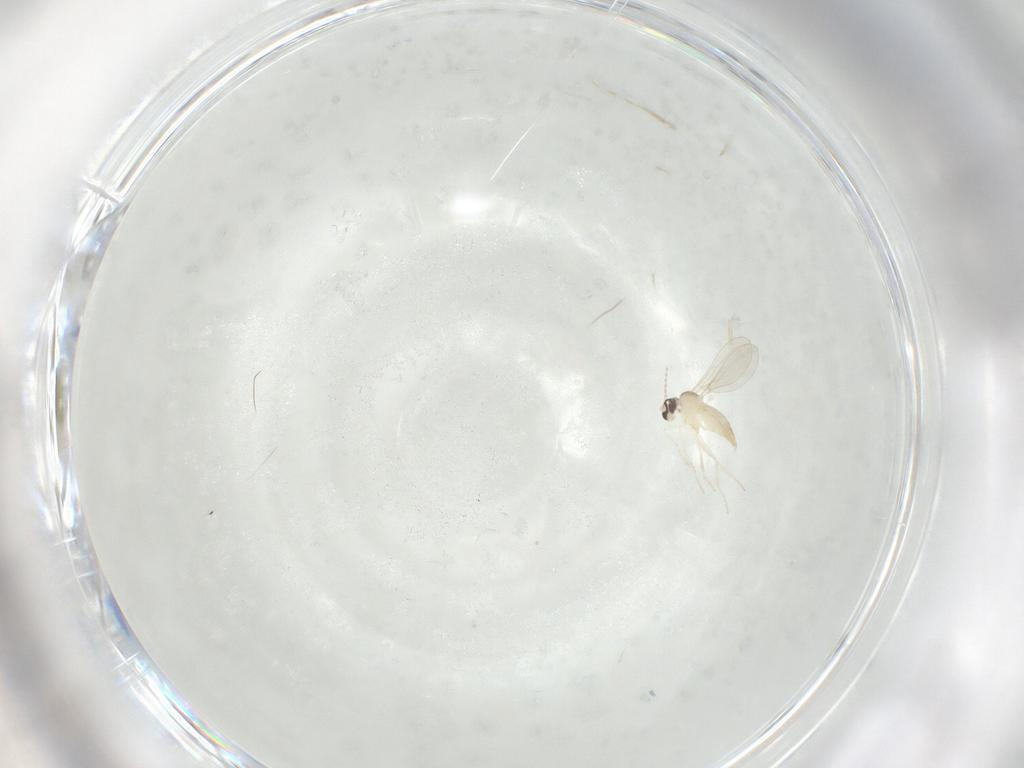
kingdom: Animalia
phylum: Arthropoda
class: Insecta
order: Diptera
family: Cecidomyiidae
